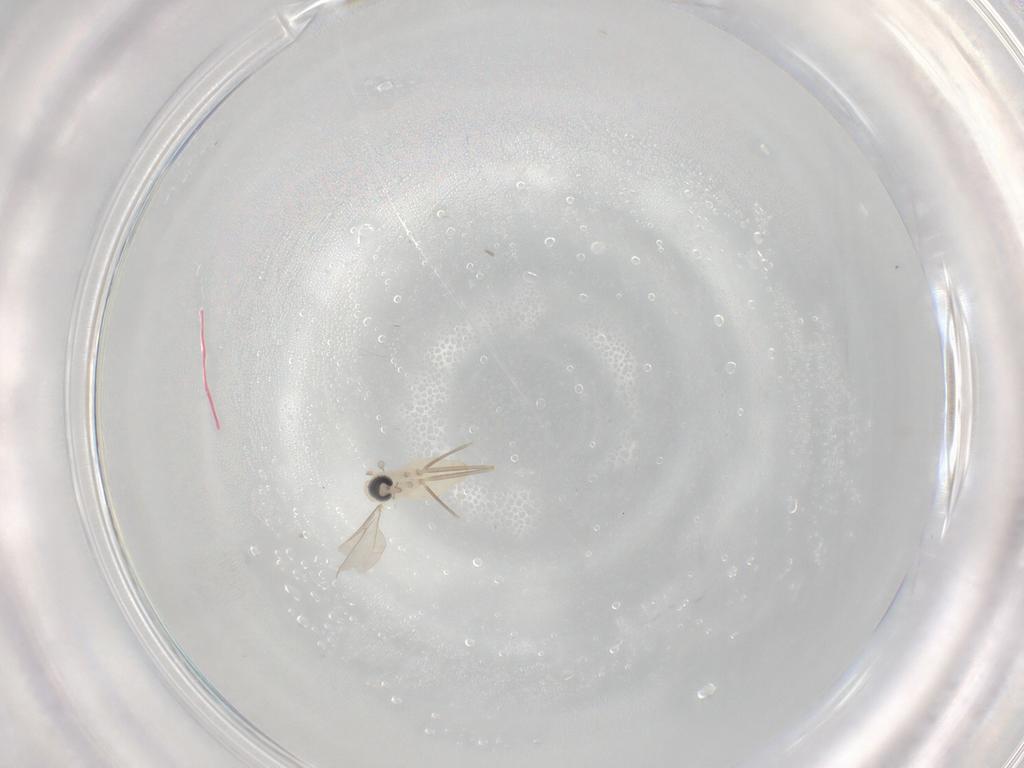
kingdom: Animalia
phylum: Arthropoda
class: Insecta
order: Diptera
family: Cecidomyiidae
